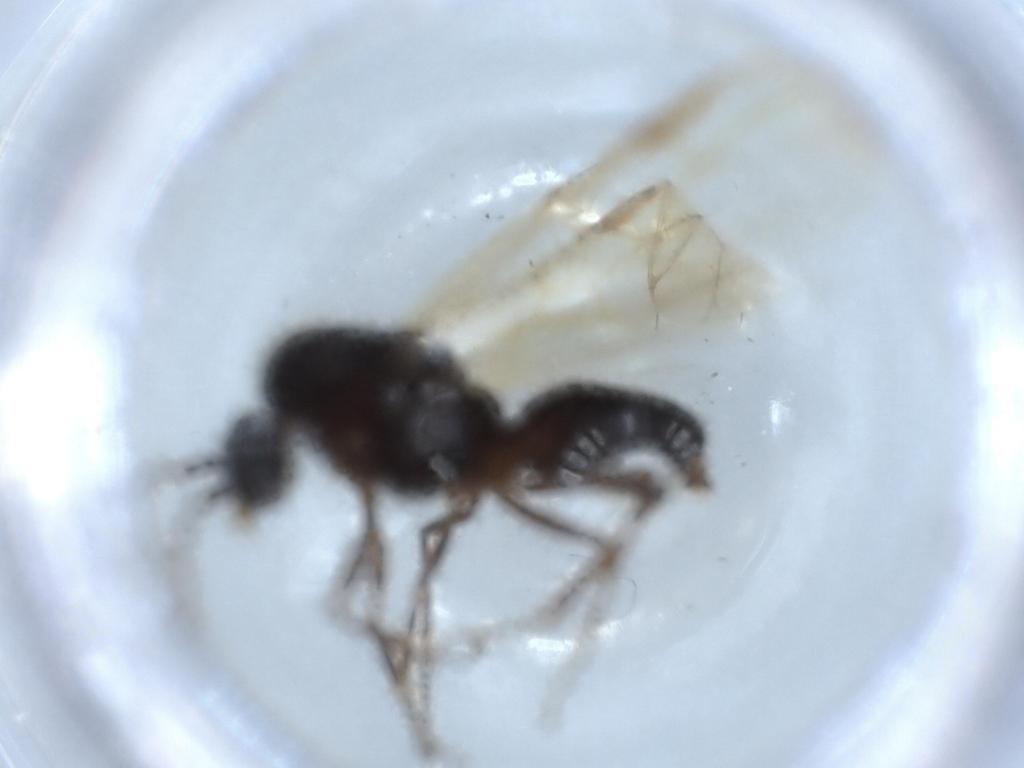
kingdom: Animalia
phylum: Arthropoda
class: Insecta
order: Hymenoptera
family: Formicidae
